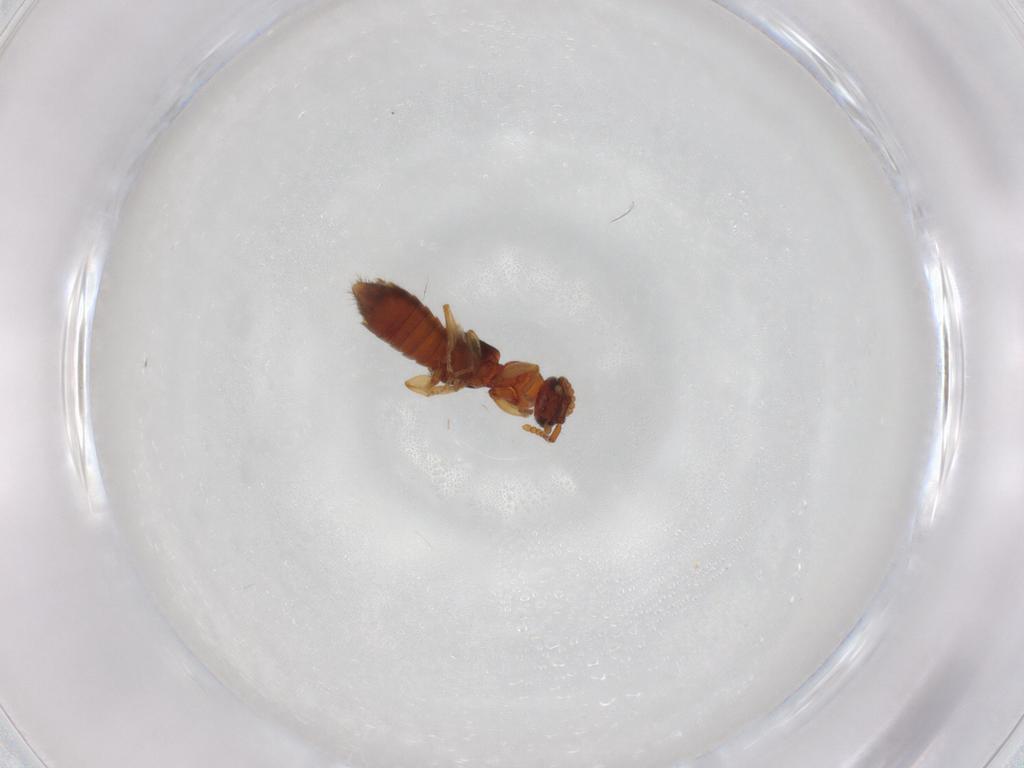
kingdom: Animalia
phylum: Arthropoda
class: Insecta
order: Coleoptera
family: Staphylinidae
